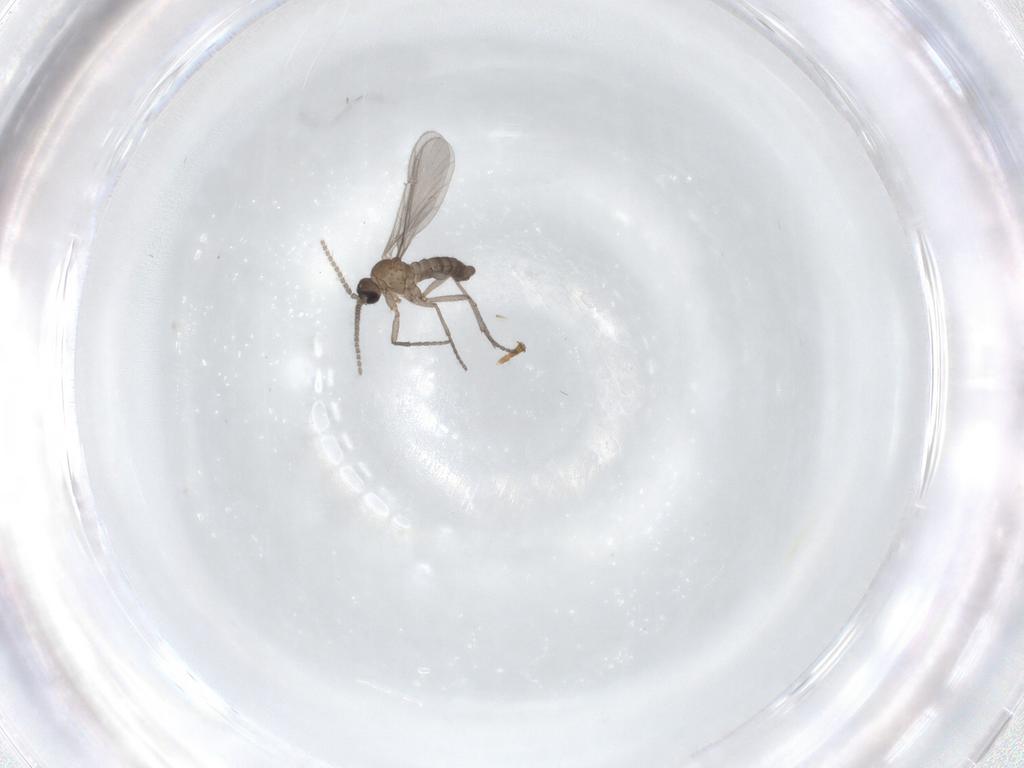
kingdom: Animalia
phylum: Arthropoda
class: Insecta
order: Diptera
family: Sciaridae
